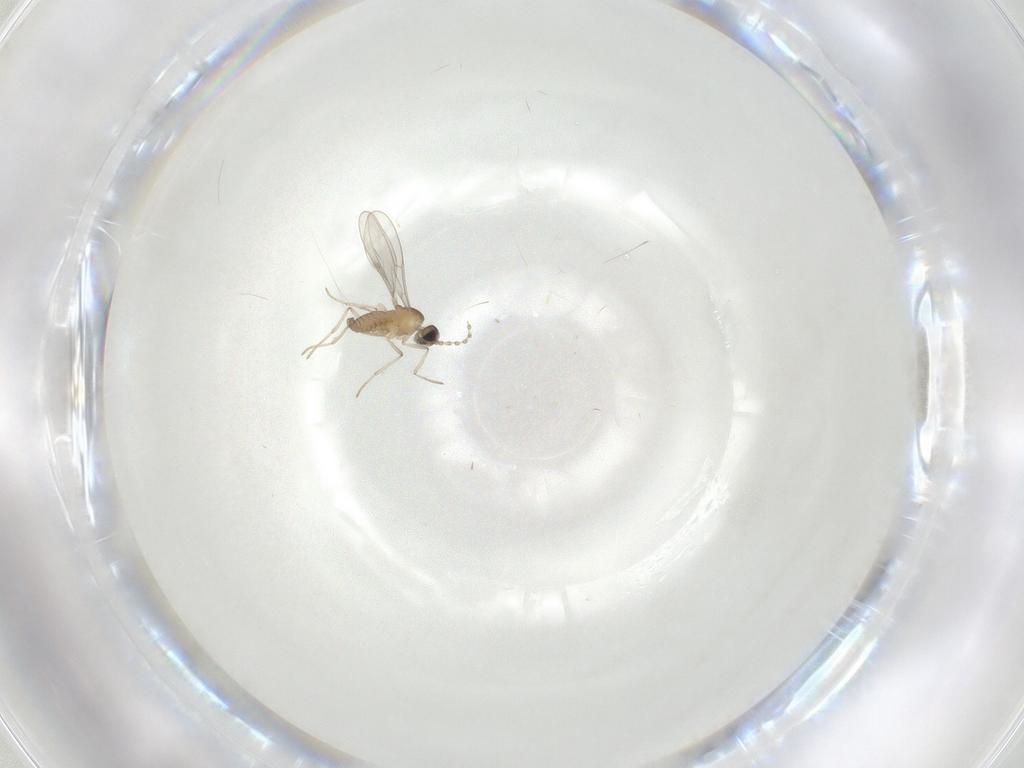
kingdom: Animalia
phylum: Arthropoda
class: Insecta
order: Diptera
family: Cecidomyiidae
